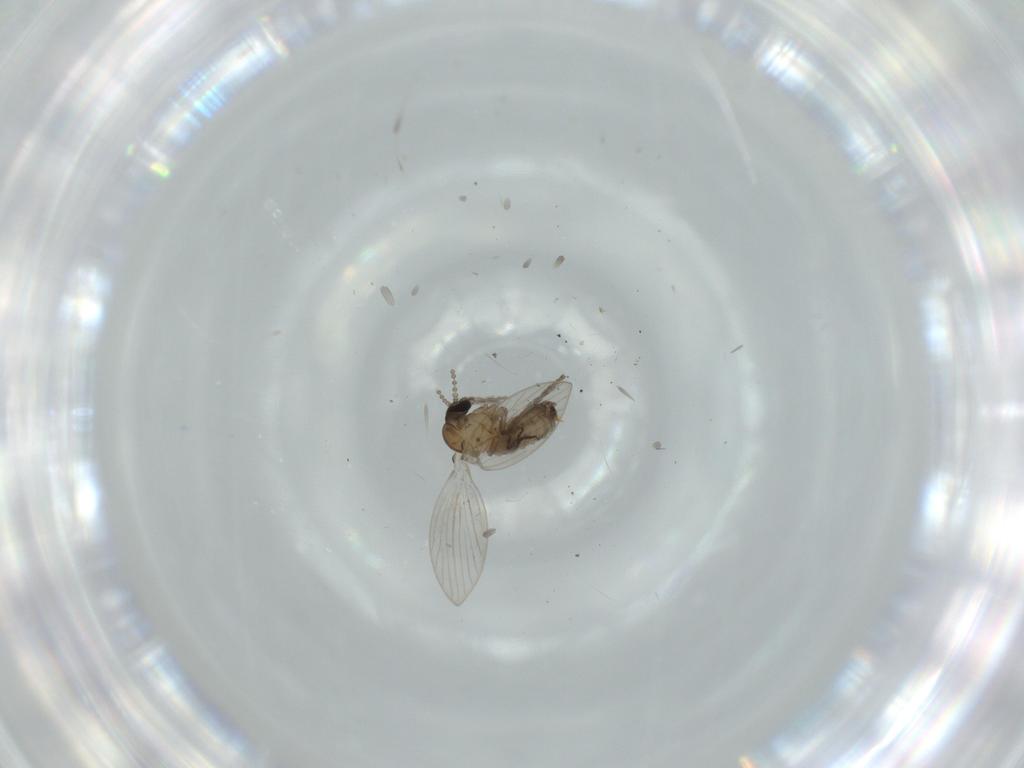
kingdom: Animalia
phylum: Arthropoda
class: Insecta
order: Diptera
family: Psychodidae
